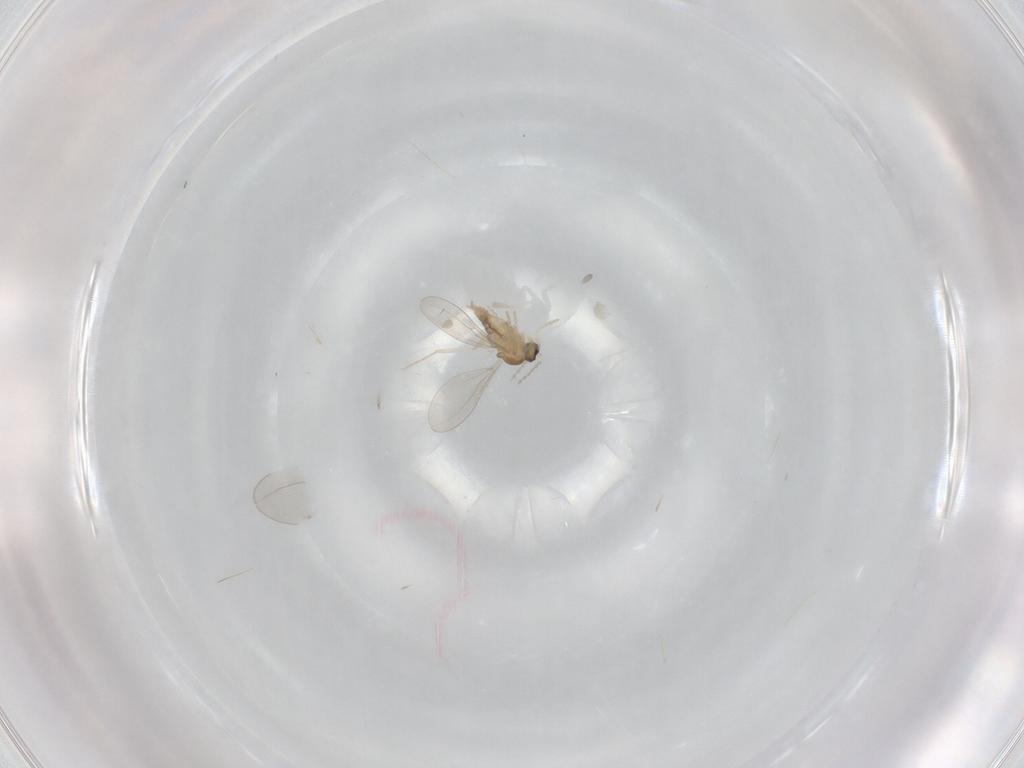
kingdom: Animalia
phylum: Arthropoda
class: Insecta
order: Diptera
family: Psychodidae
